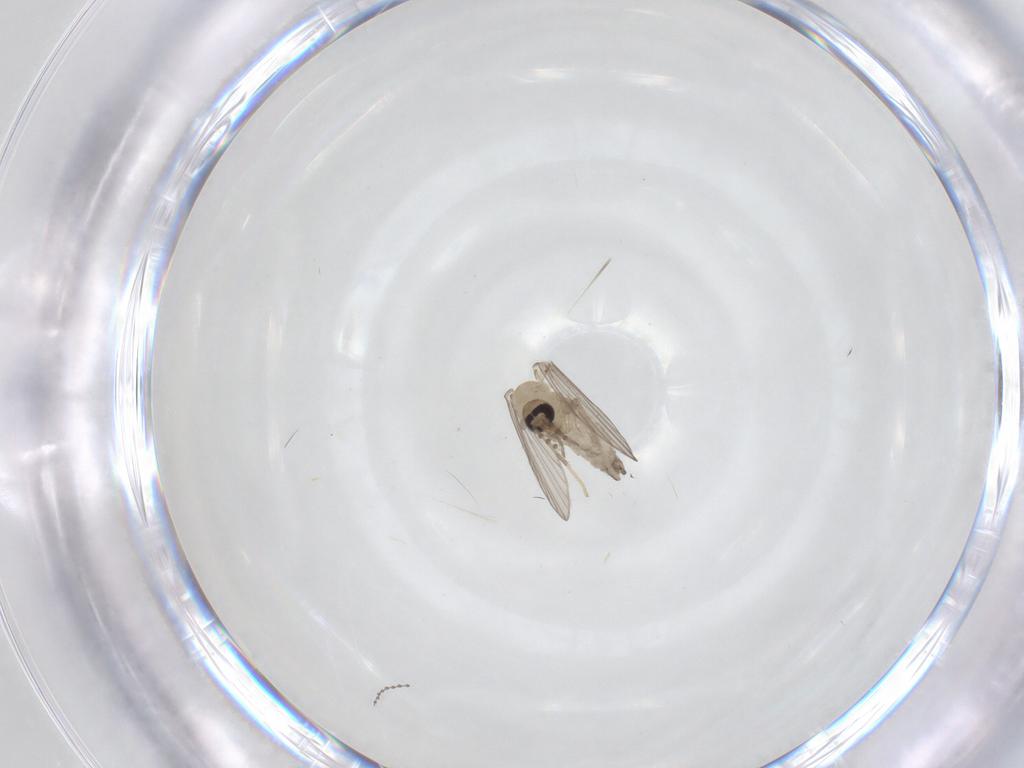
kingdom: Animalia
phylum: Arthropoda
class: Insecta
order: Diptera
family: Psychodidae
